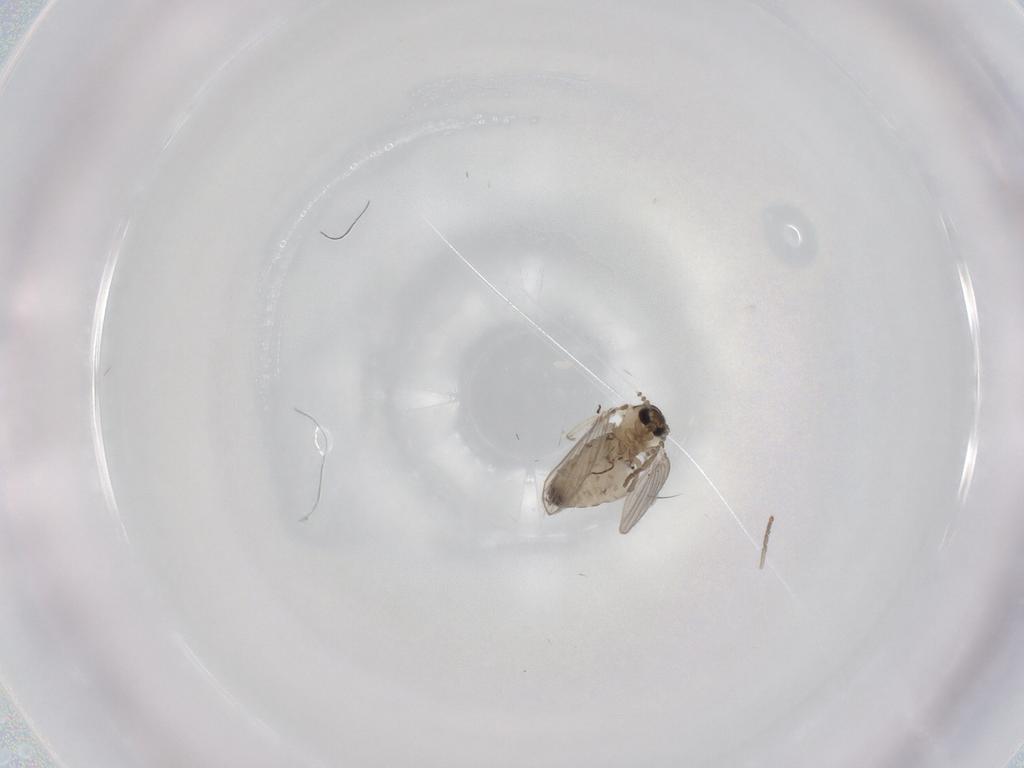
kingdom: Animalia
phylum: Arthropoda
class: Insecta
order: Diptera
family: Psychodidae
